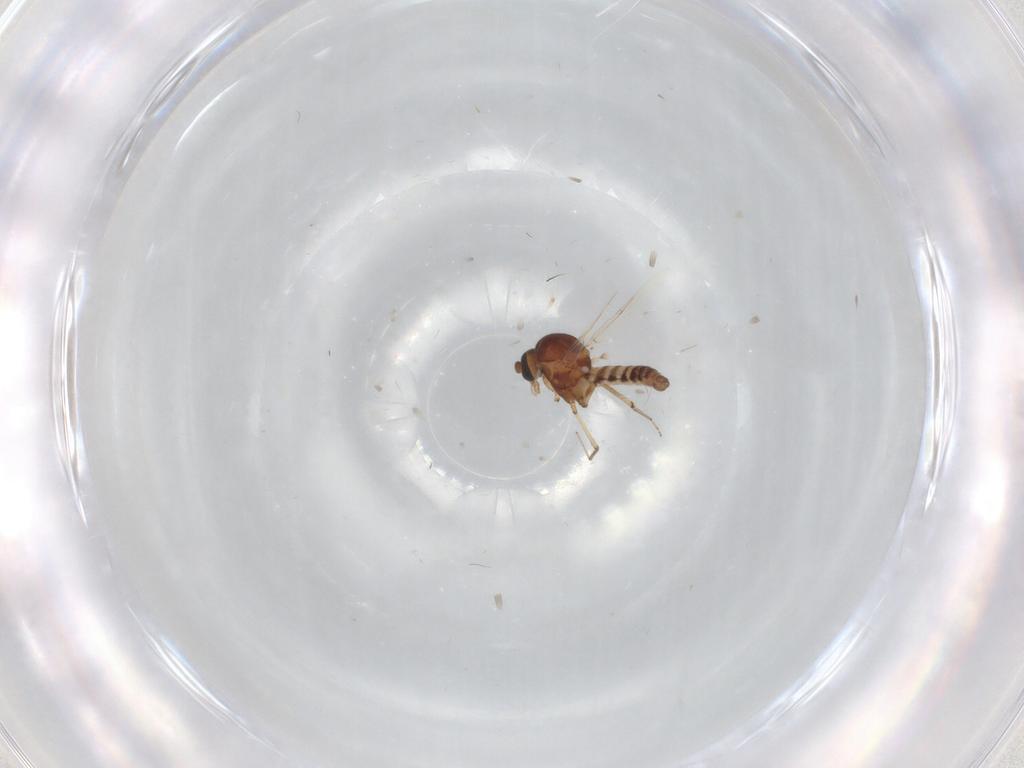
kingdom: Animalia
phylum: Arthropoda
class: Insecta
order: Diptera
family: Ceratopogonidae
